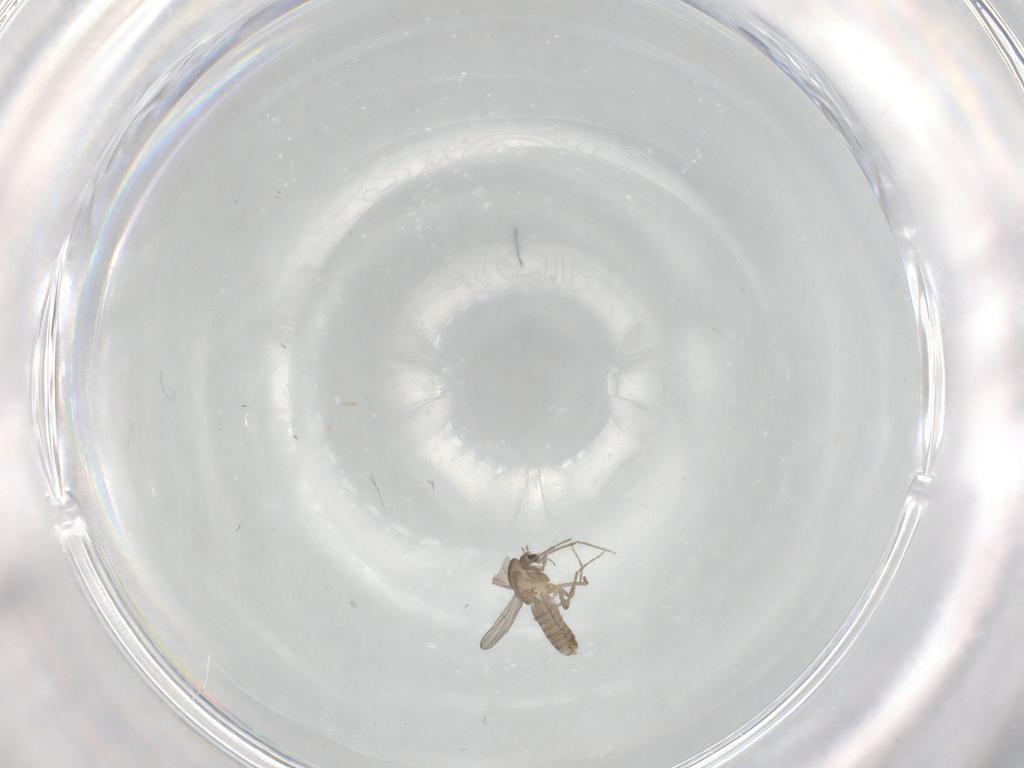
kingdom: Animalia
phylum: Arthropoda
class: Insecta
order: Diptera
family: Chironomidae
